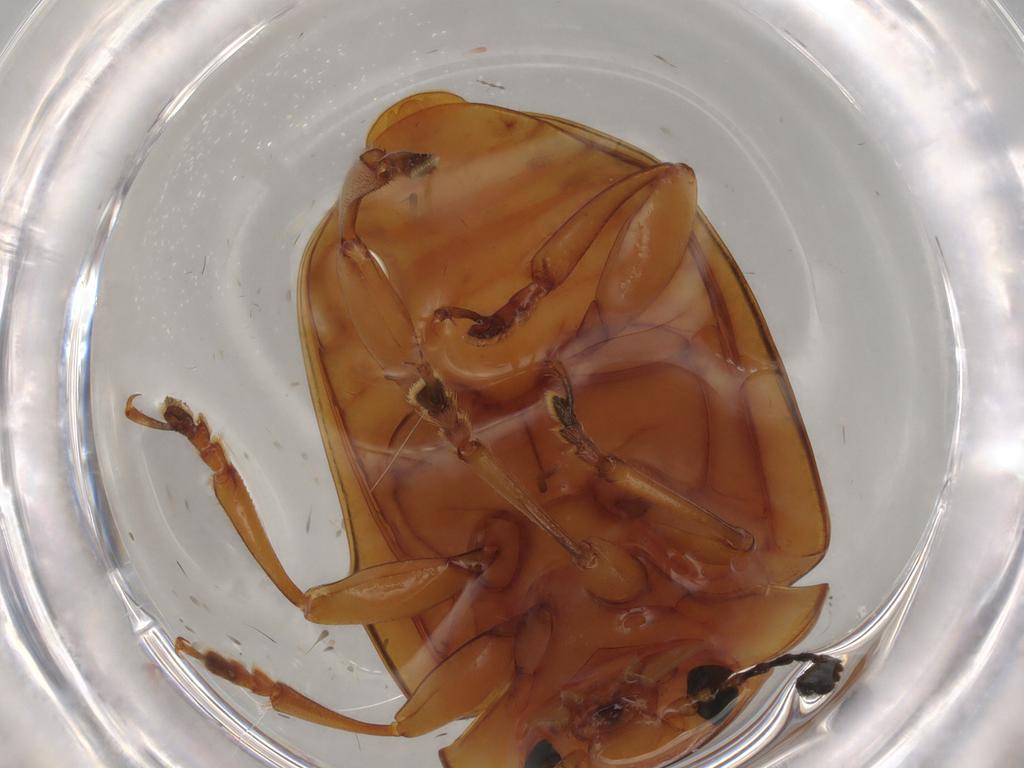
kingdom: Animalia
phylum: Arthropoda
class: Insecta
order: Coleoptera
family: Erotylidae
